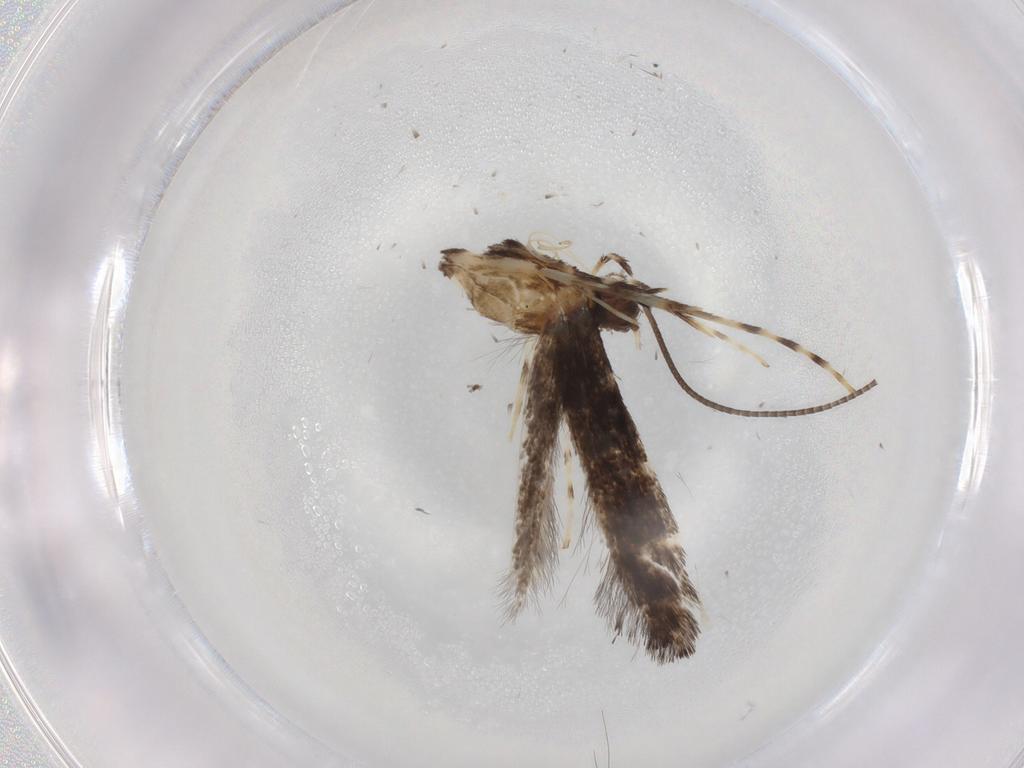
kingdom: Animalia
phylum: Arthropoda
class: Insecta
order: Lepidoptera
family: Gracillariidae
